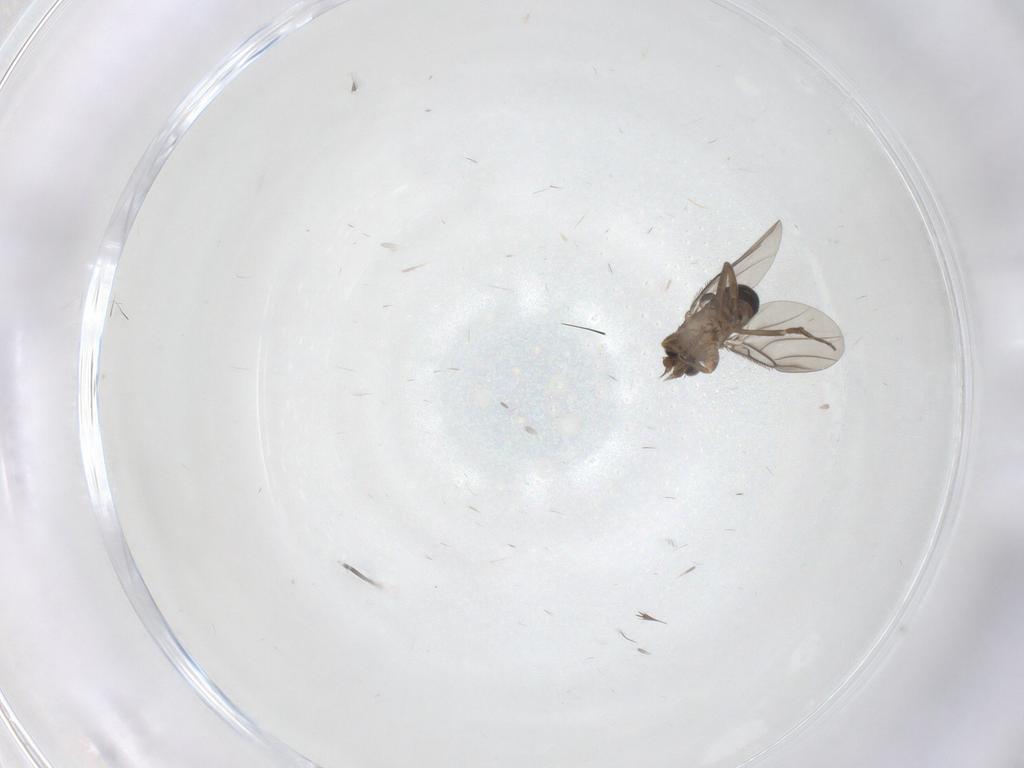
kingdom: Animalia
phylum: Arthropoda
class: Insecta
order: Diptera
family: Phoridae
